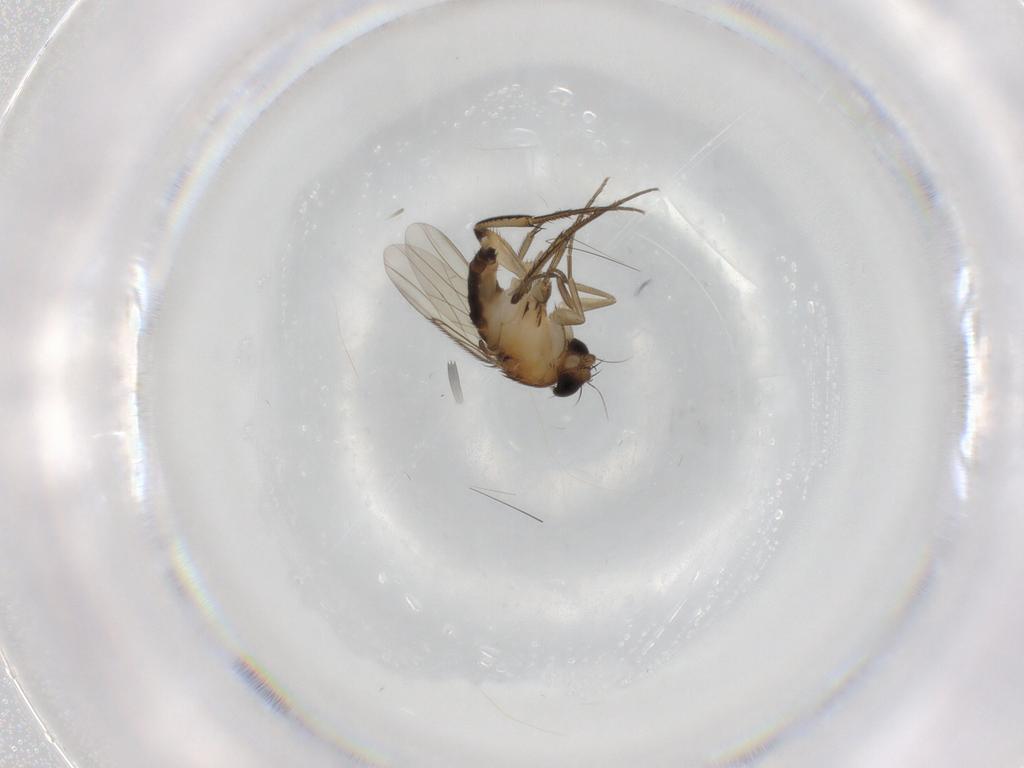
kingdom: Animalia
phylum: Arthropoda
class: Insecta
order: Diptera
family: Phoridae
